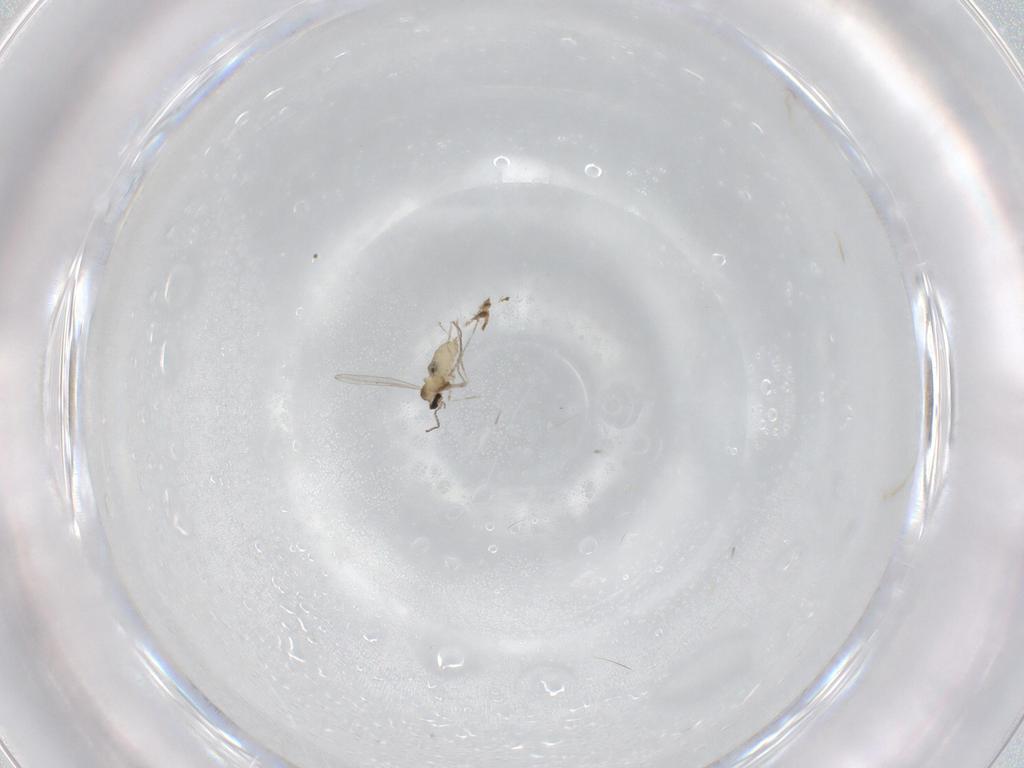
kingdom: Animalia
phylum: Arthropoda
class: Insecta
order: Diptera
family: Cecidomyiidae
